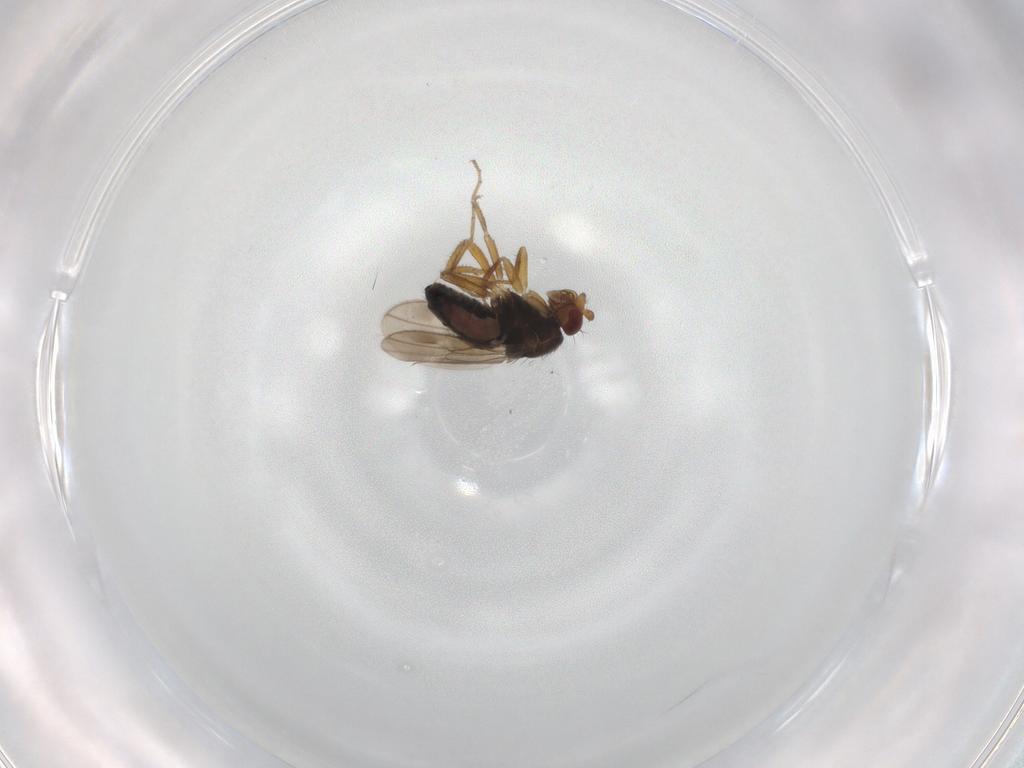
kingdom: Animalia
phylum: Arthropoda
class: Insecta
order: Diptera
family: Sphaeroceridae
